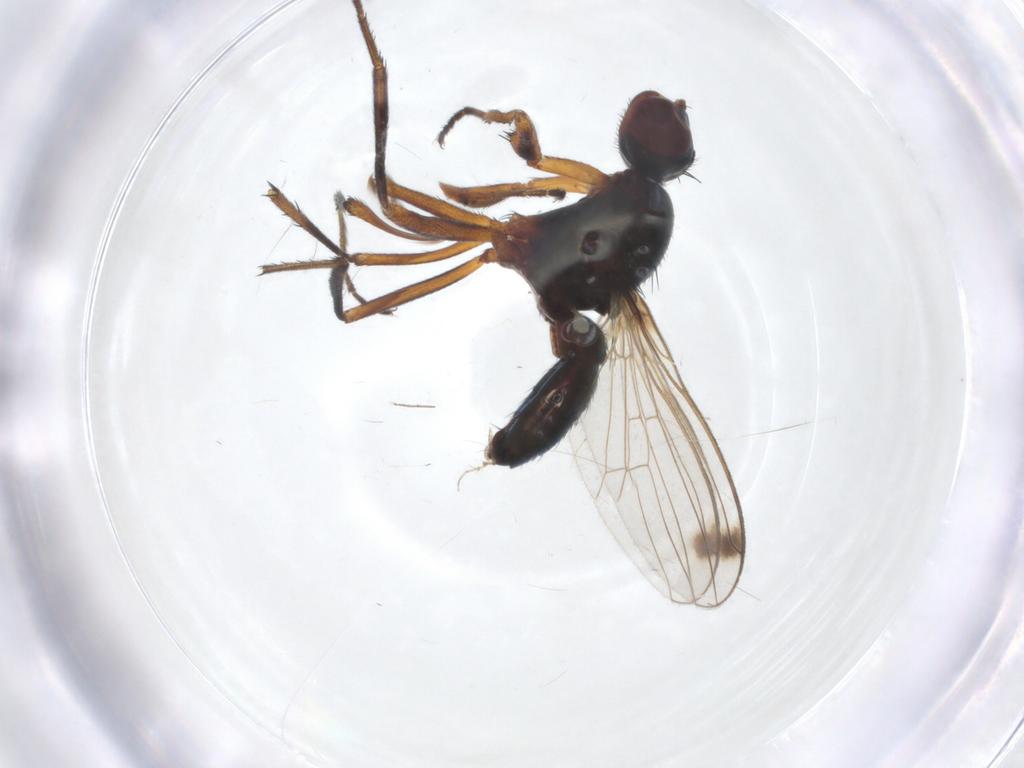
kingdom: Animalia
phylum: Arthropoda
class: Insecta
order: Diptera
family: Sepsidae
